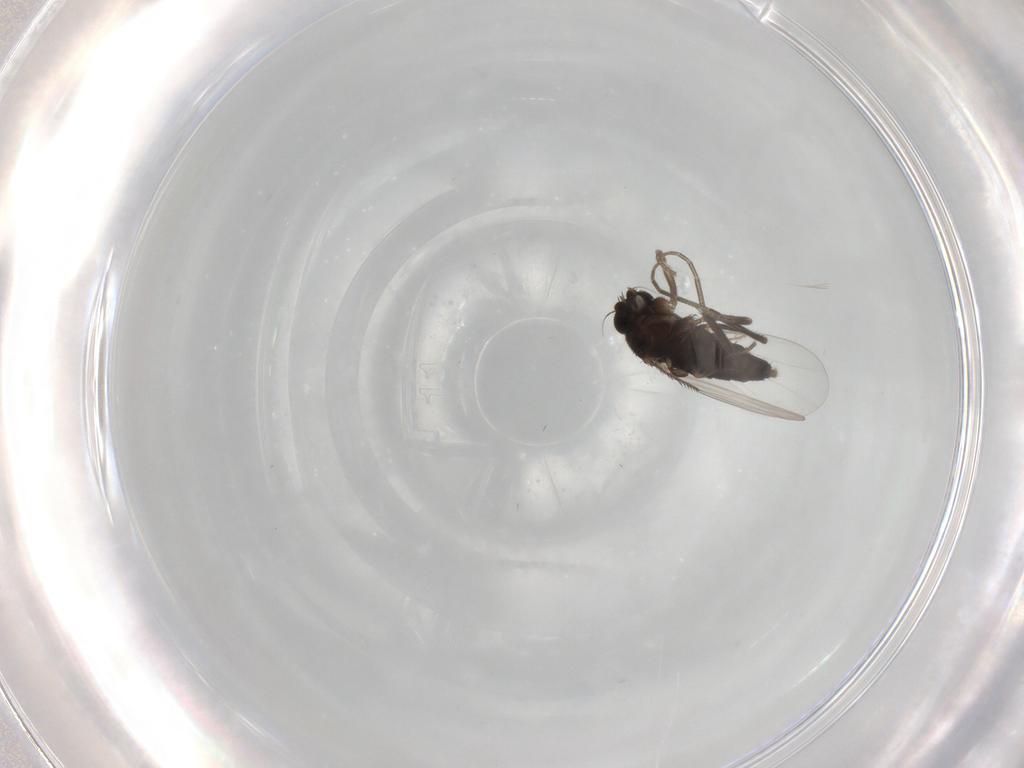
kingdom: Animalia
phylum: Arthropoda
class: Insecta
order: Diptera
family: Phoridae
